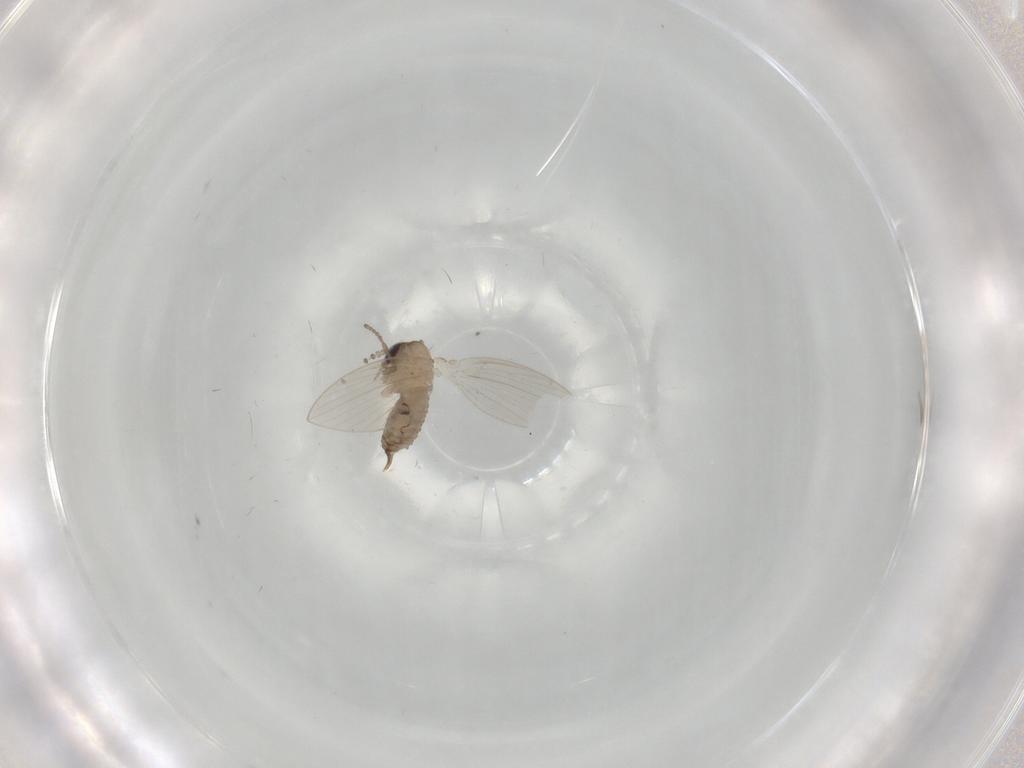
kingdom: Animalia
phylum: Arthropoda
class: Insecta
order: Diptera
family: Psychodidae
